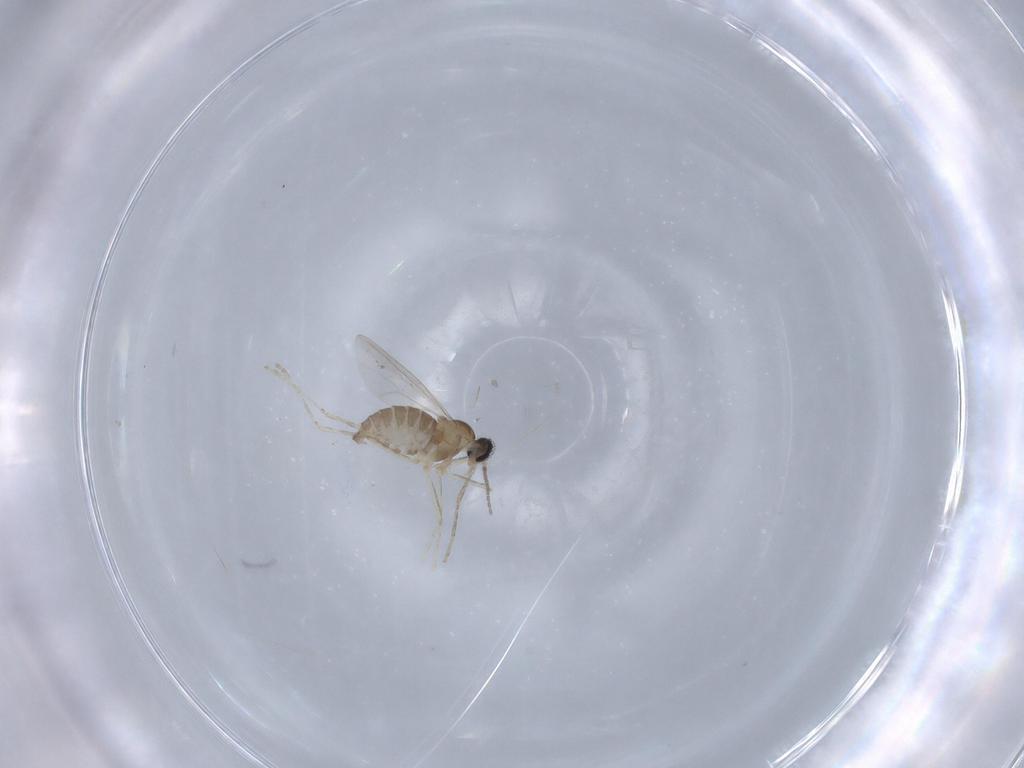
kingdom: Animalia
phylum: Arthropoda
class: Insecta
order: Diptera
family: Cecidomyiidae
